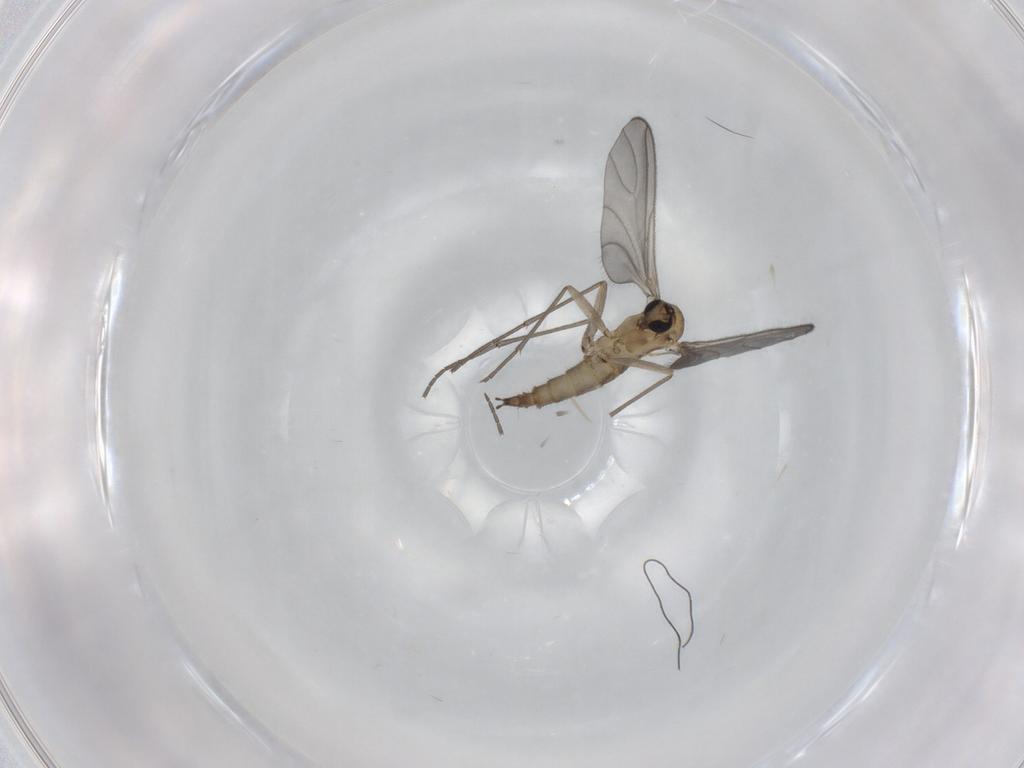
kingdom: Animalia
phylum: Arthropoda
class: Insecta
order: Diptera
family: Sciaridae
